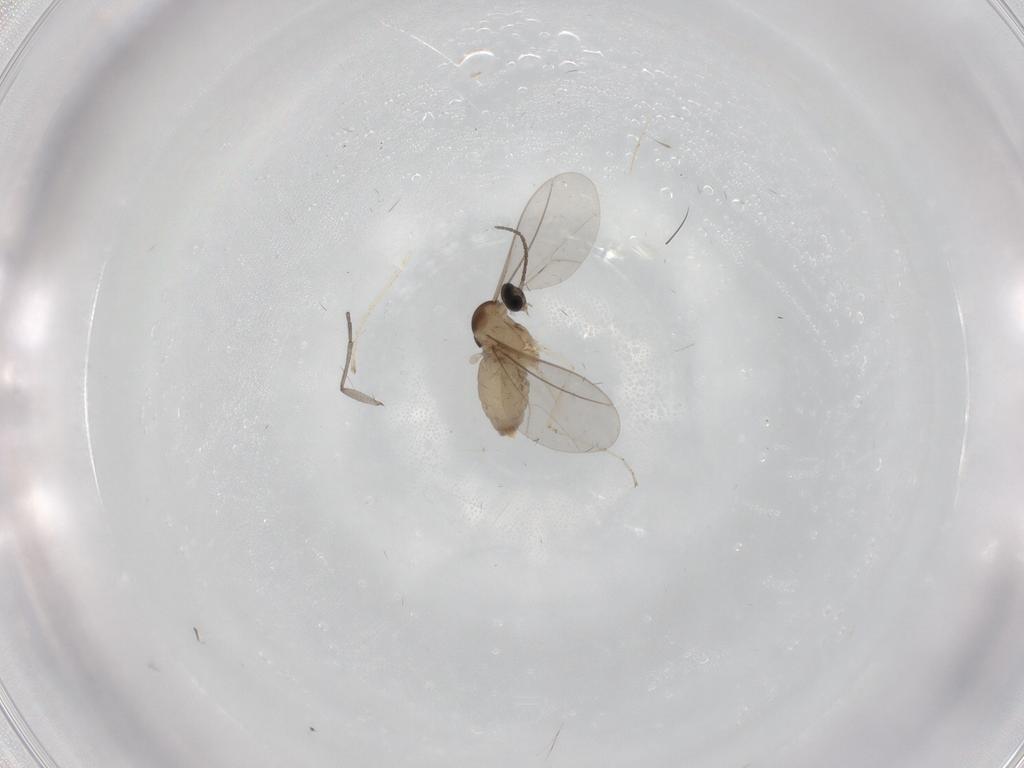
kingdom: Animalia
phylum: Arthropoda
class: Insecta
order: Diptera
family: Cecidomyiidae
